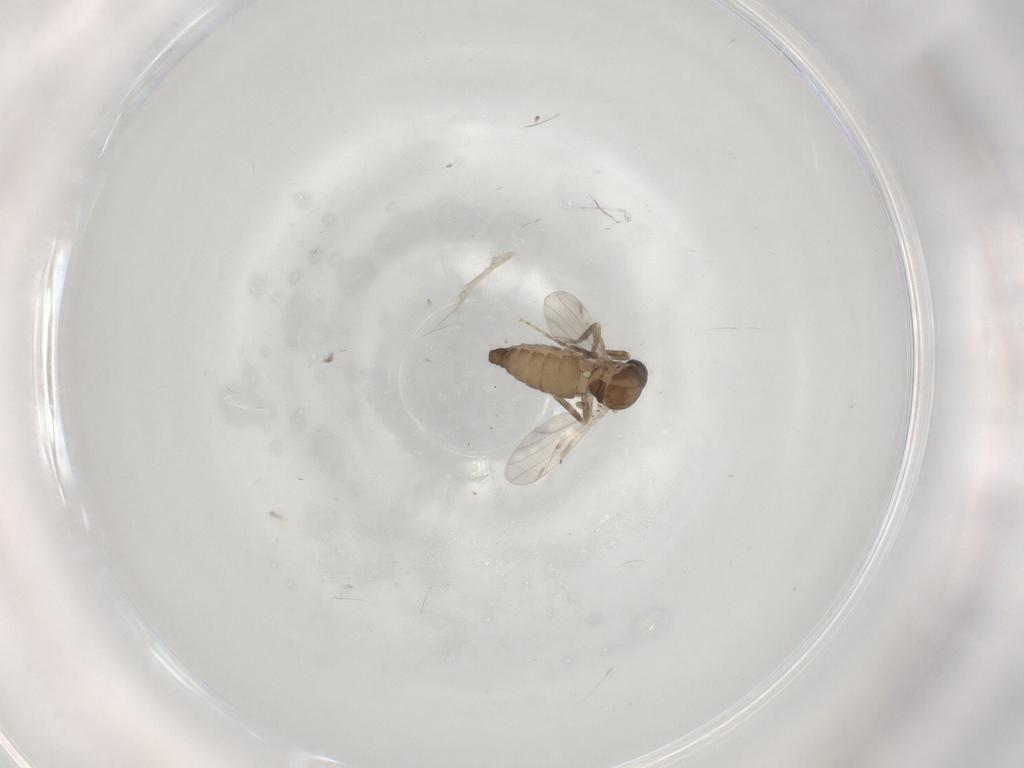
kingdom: Animalia
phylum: Arthropoda
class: Insecta
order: Diptera
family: Ceratopogonidae
